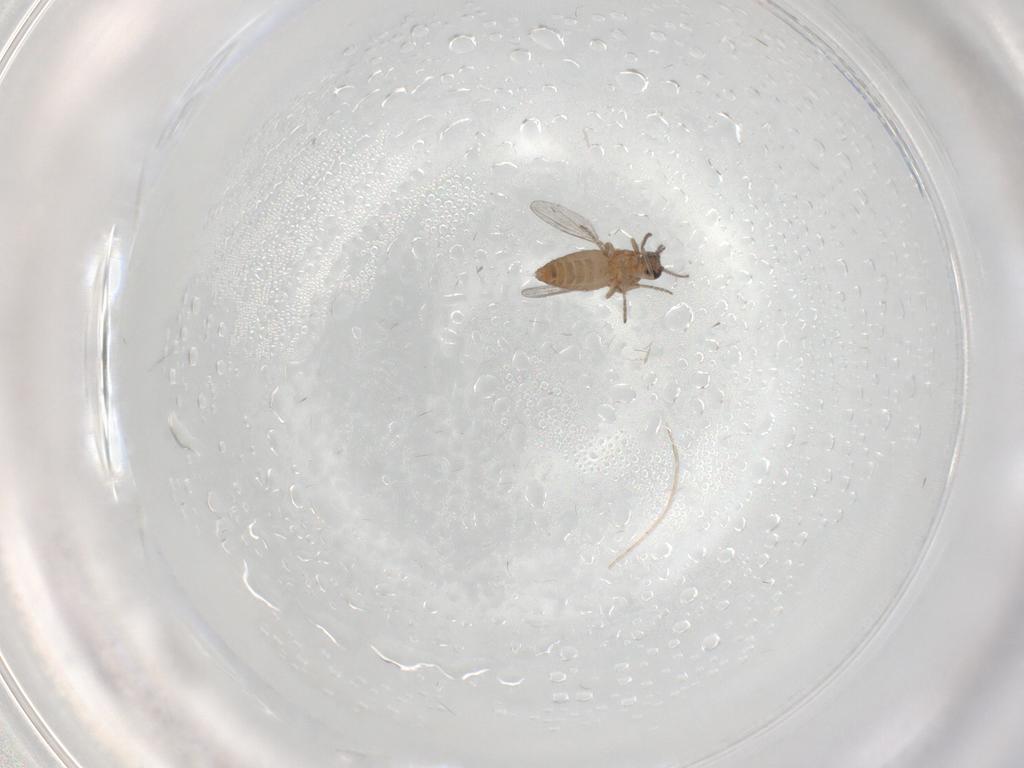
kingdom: Animalia
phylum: Arthropoda
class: Insecta
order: Diptera
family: Ceratopogonidae
